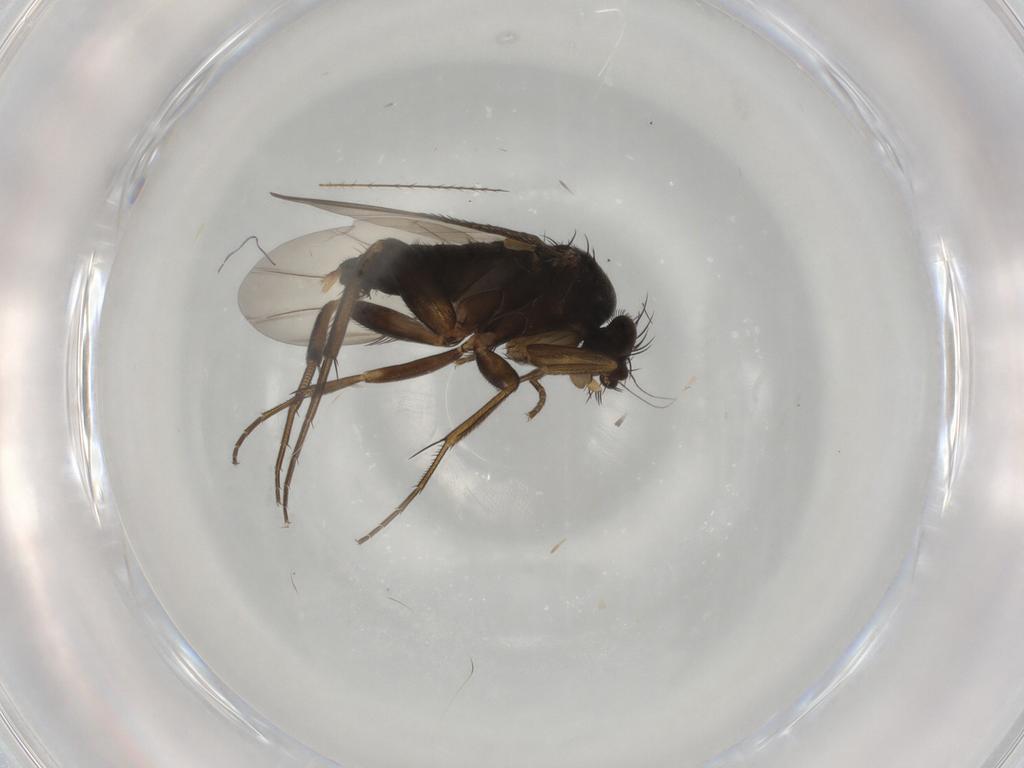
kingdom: Animalia
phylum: Arthropoda
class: Insecta
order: Diptera
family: Phoridae
